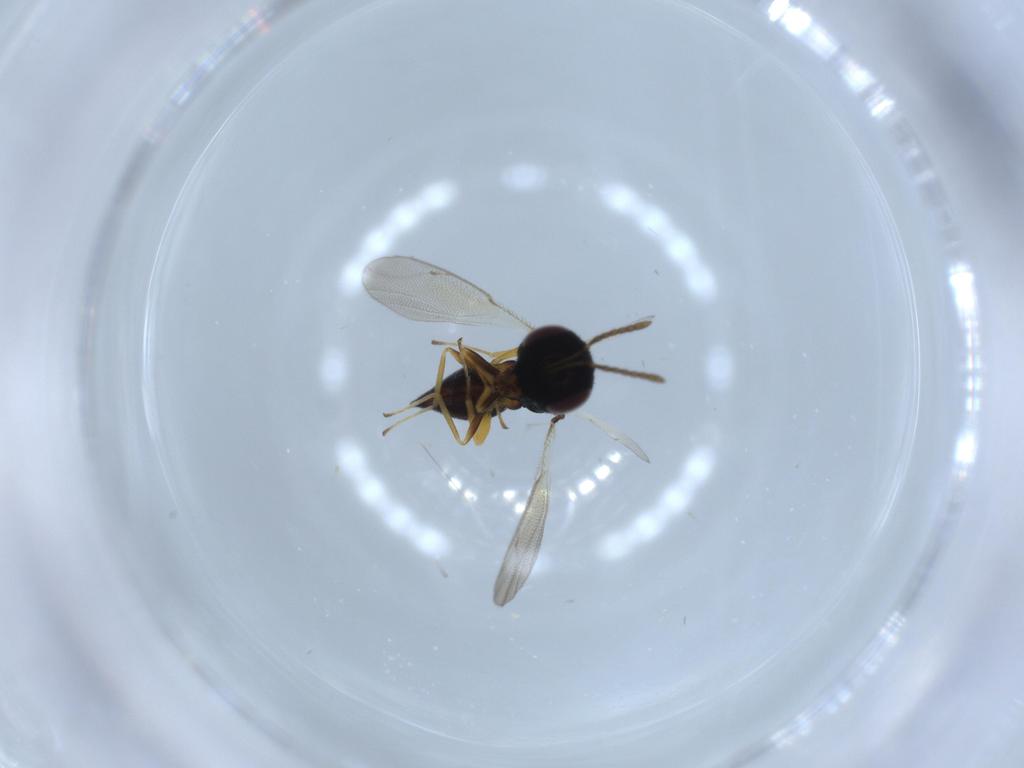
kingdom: Animalia
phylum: Arthropoda
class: Insecta
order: Hymenoptera
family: Pteromalidae
